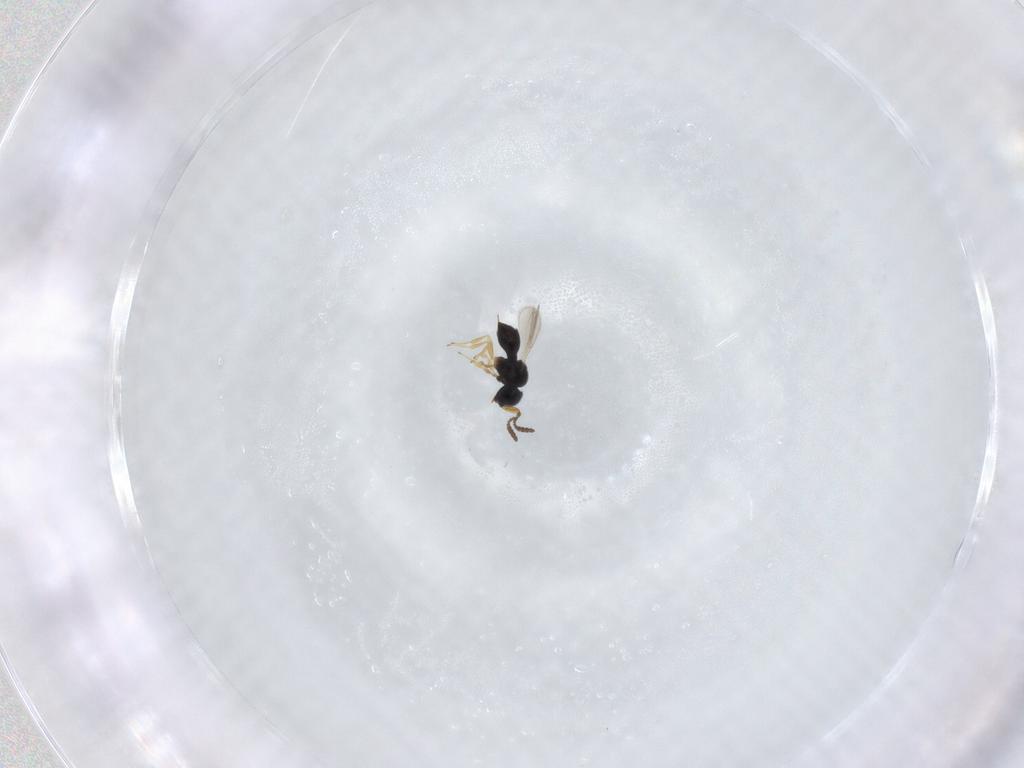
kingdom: Animalia
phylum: Arthropoda
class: Insecta
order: Hymenoptera
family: Scelionidae
